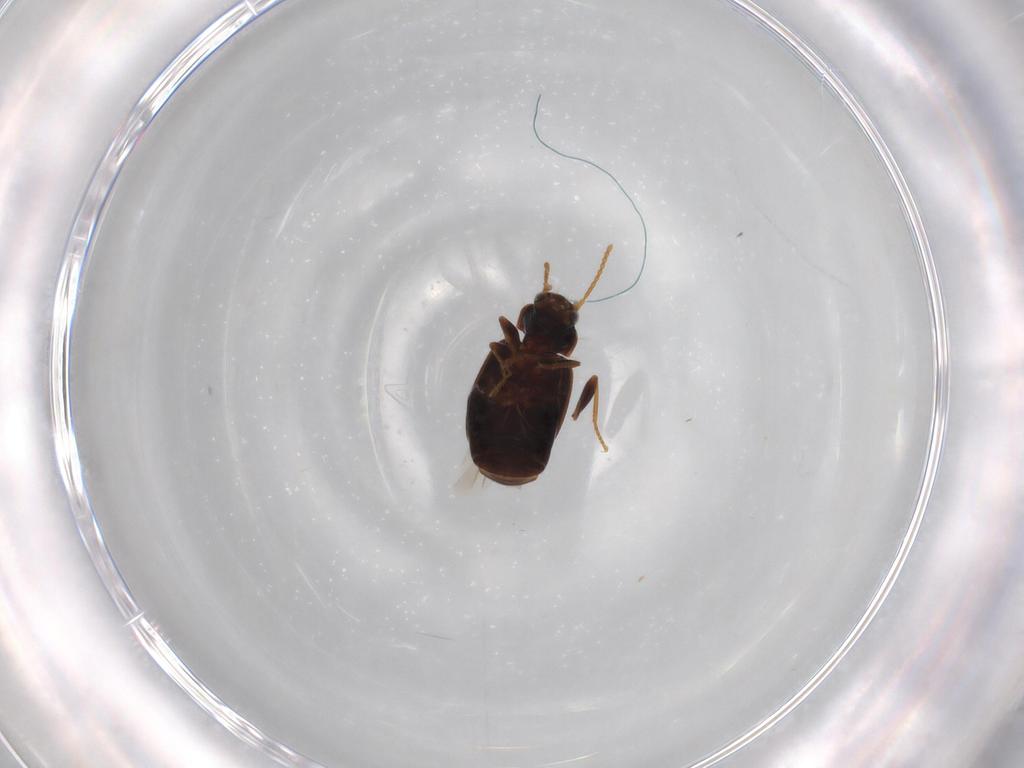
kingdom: Animalia
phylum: Arthropoda
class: Insecta
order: Coleoptera
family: Carabidae
